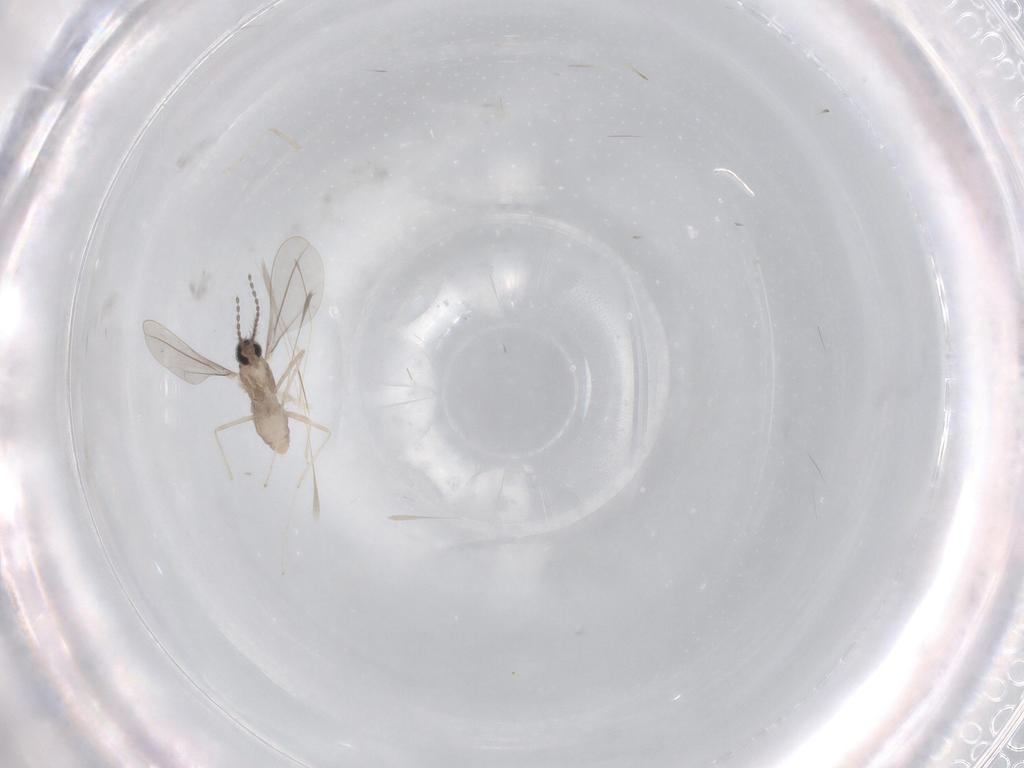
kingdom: Animalia
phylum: Arthropoda
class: Insecta
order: Diptera
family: Cecidomyiidae
